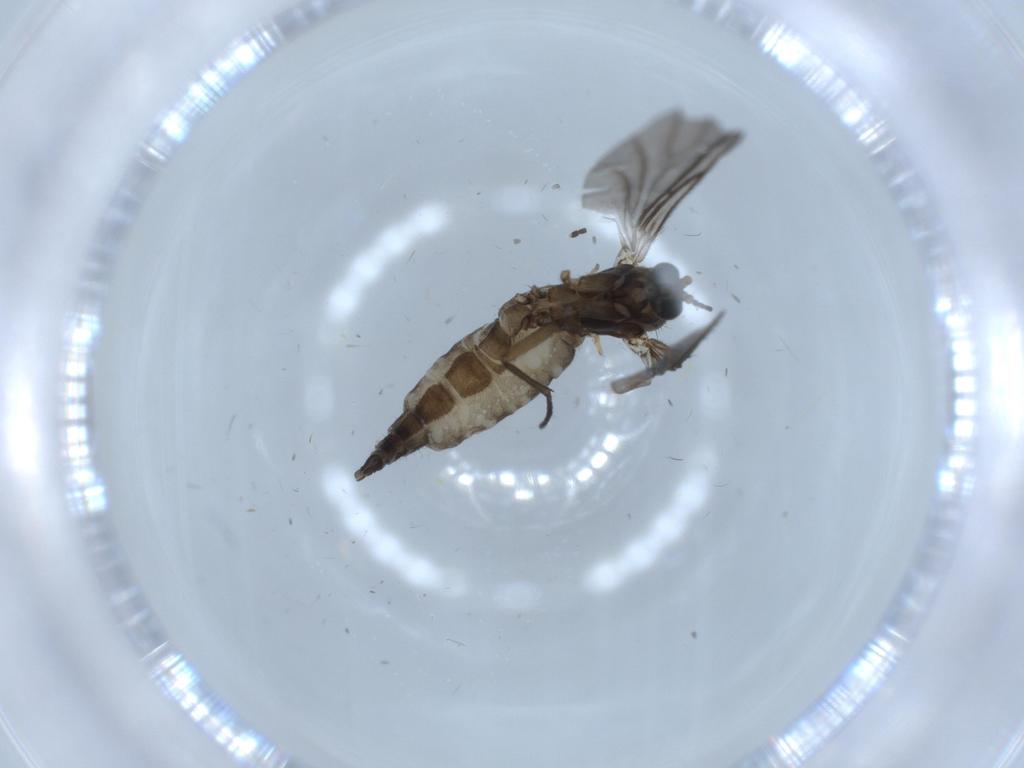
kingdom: Animalia
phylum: Arthropoda
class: Insecta
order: Diptera
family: Sciaridae
